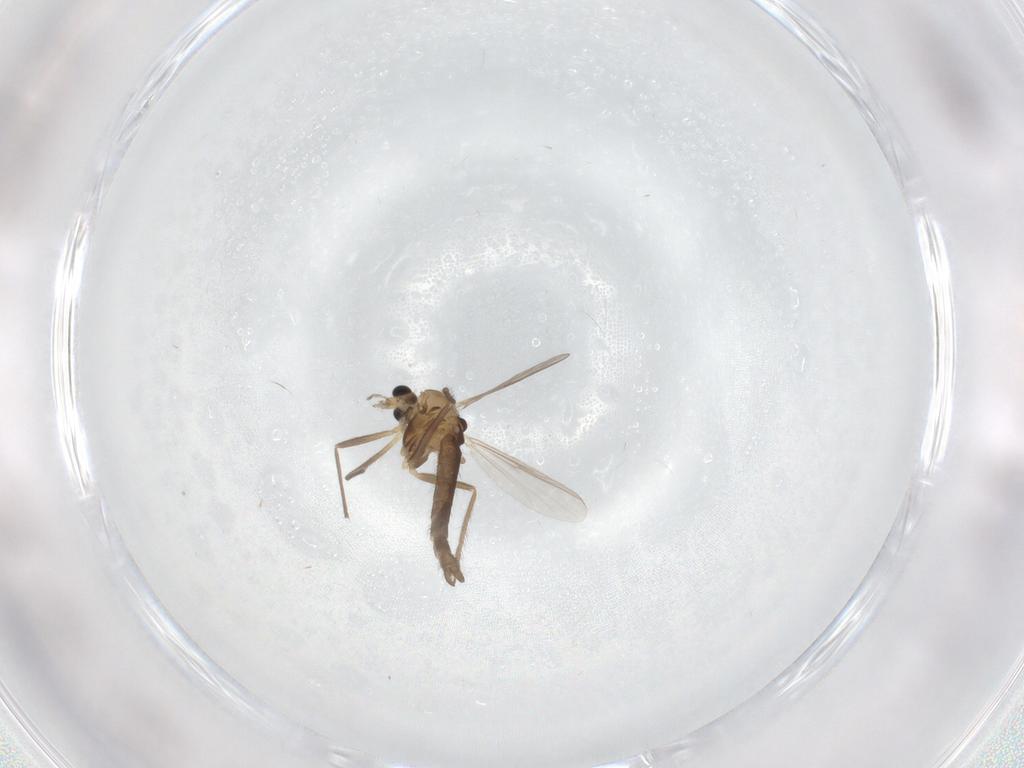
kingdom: Animalia
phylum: Arthropoda
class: Insecta
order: Diptera
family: Chironomidae
